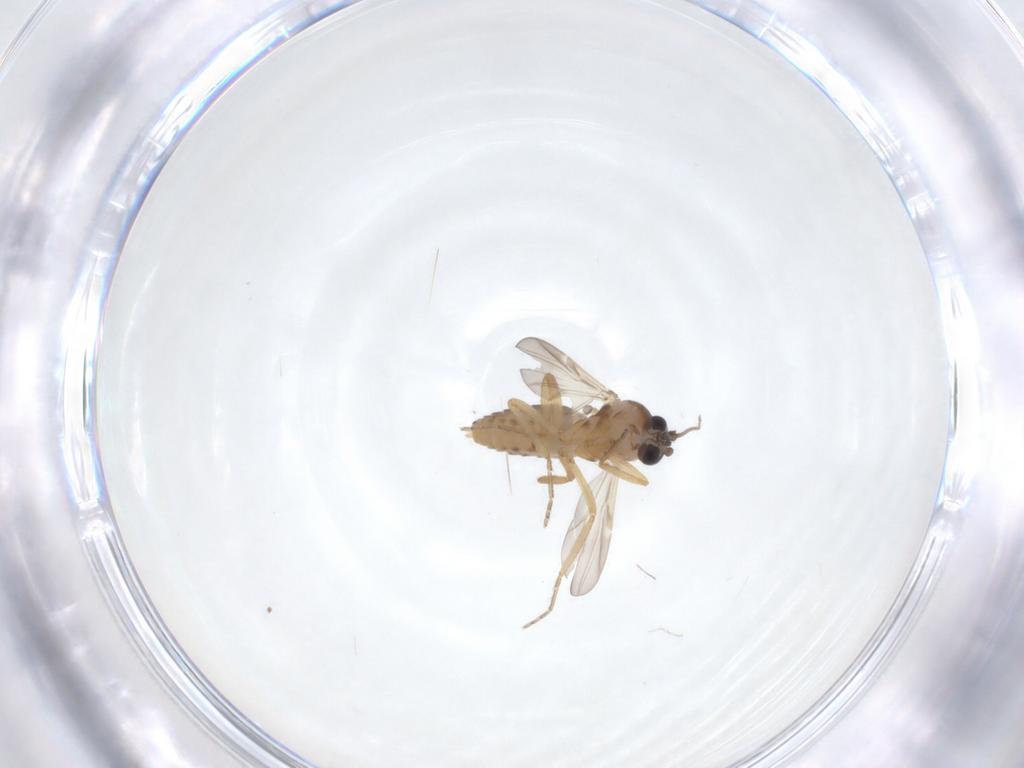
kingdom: Animalia
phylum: Arthropoda
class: Insecta
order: Diptera
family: Ceratopogonidae
